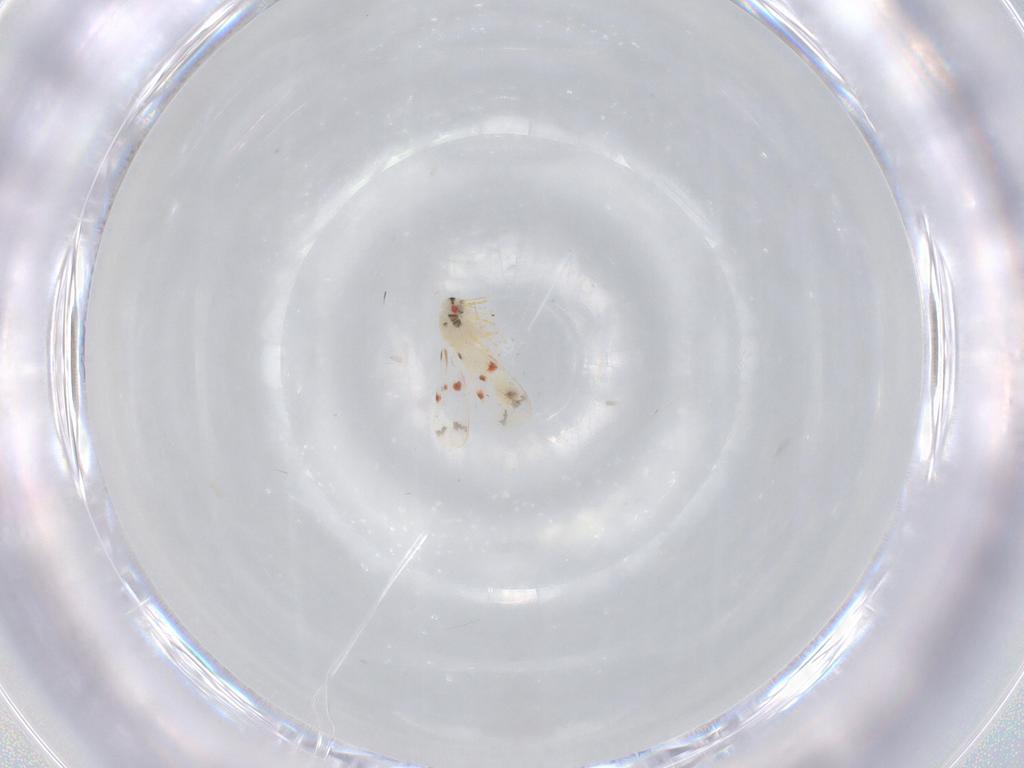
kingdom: Animalia
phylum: Arthropoda
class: Insecta
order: Hemiptera
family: Aleyrodidae
